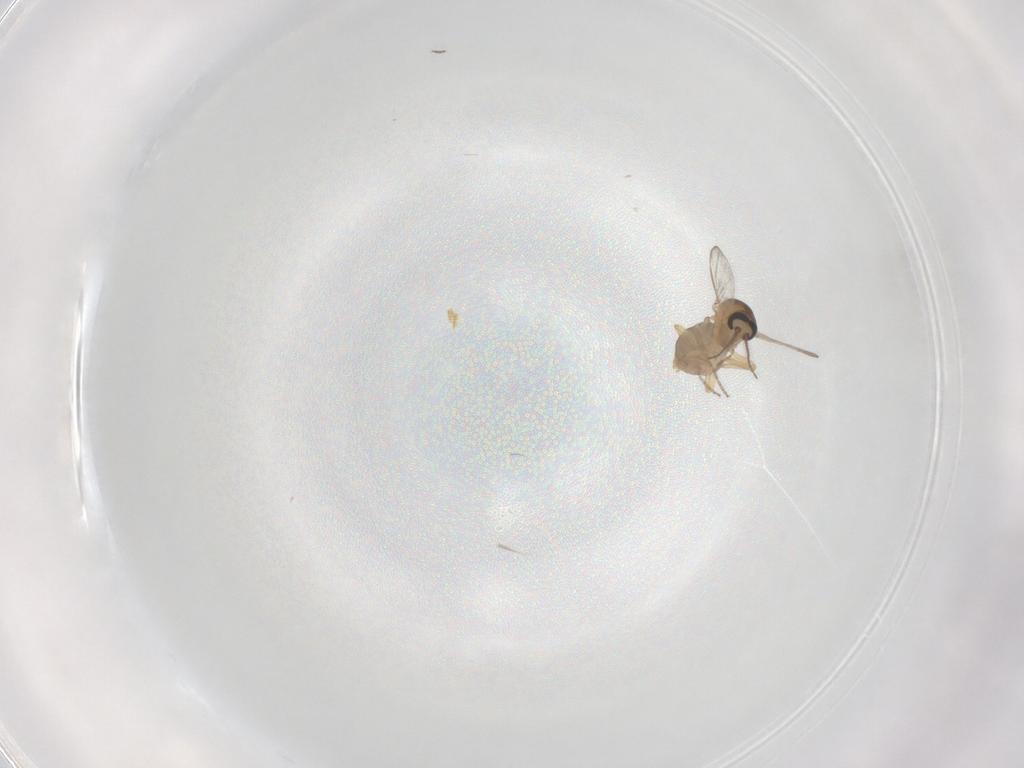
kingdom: Animalia
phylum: Arthropoda
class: Insecta
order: Diptera
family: Ceratopogonidae
